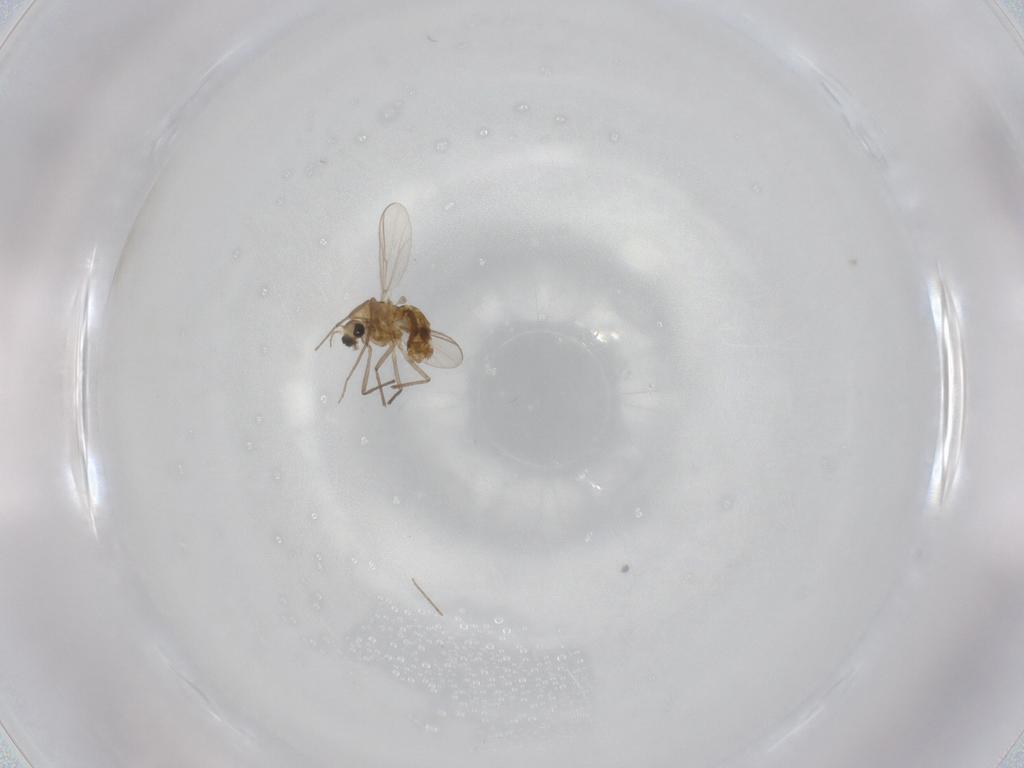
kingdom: Animalia
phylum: Arthropoda
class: Insecta
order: Diptera
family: Chironomidae
